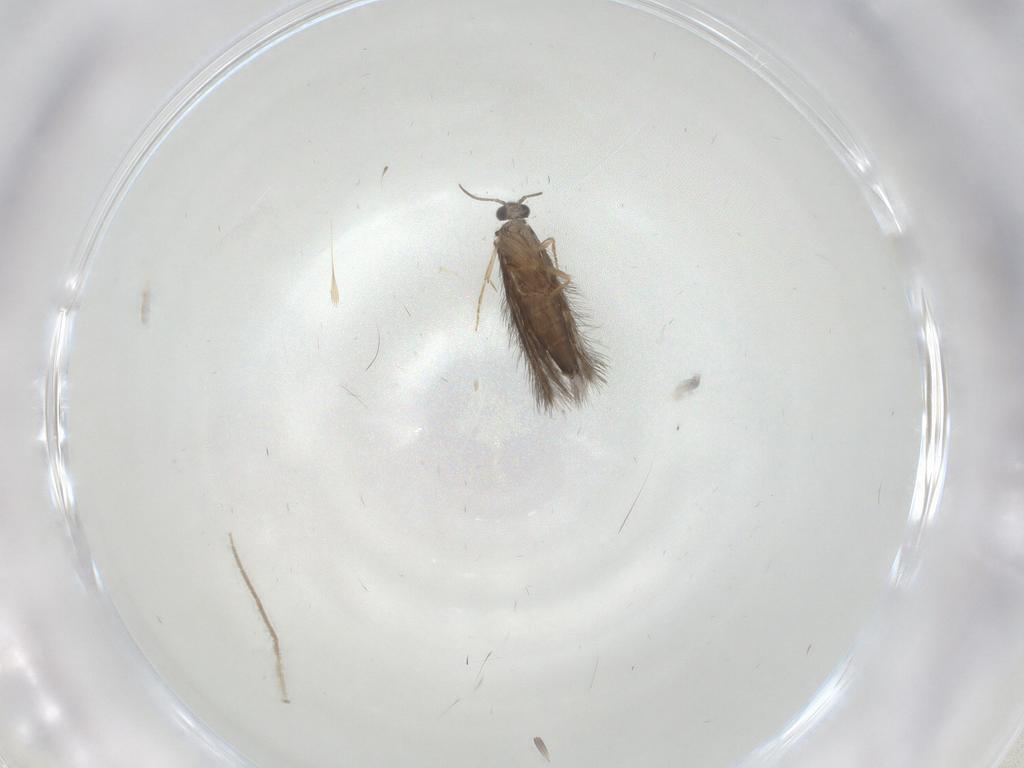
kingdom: Animalia
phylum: Arthropoda
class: Insecta
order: Trichoptera
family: Hydroptilidae
